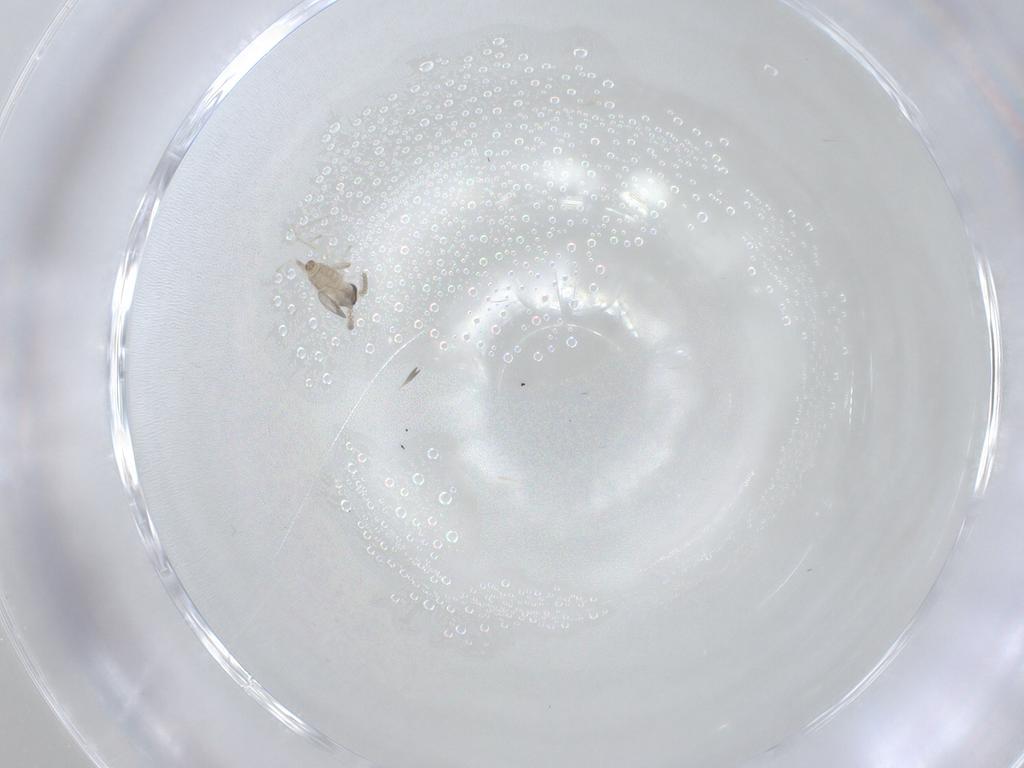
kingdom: Animalia
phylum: Arthropoda
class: Insecta
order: Diptera
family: Cecidomyiidae
